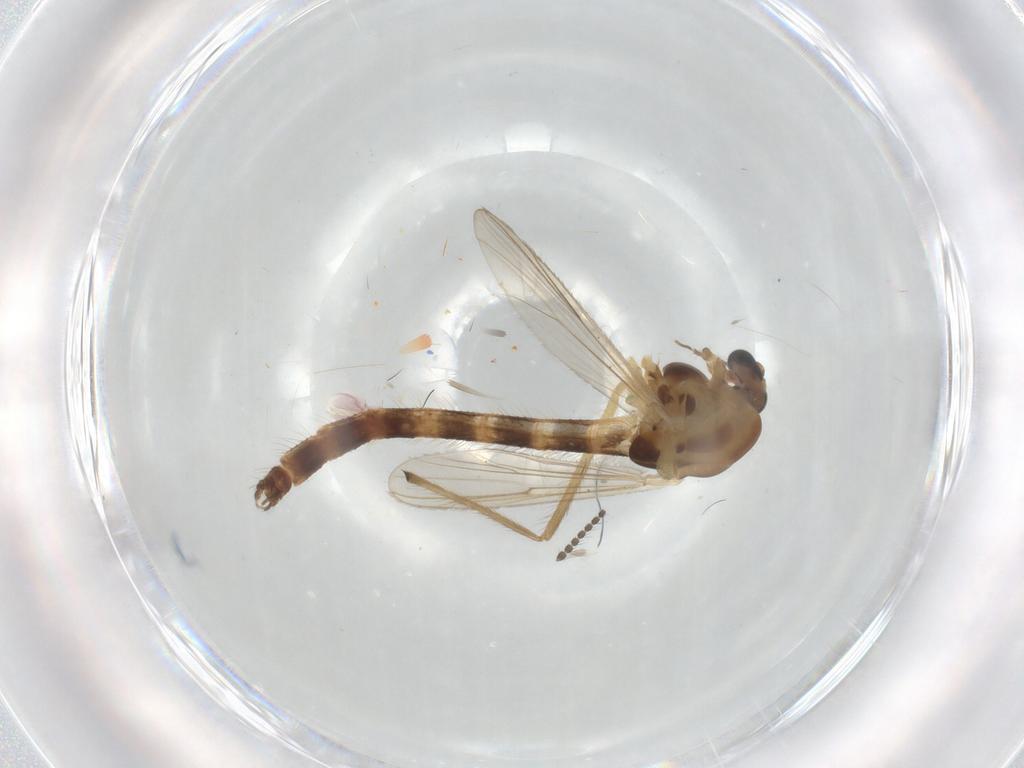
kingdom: Animalia
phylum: Arthropoda
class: Insecta
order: Diptera
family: Chironomidae
